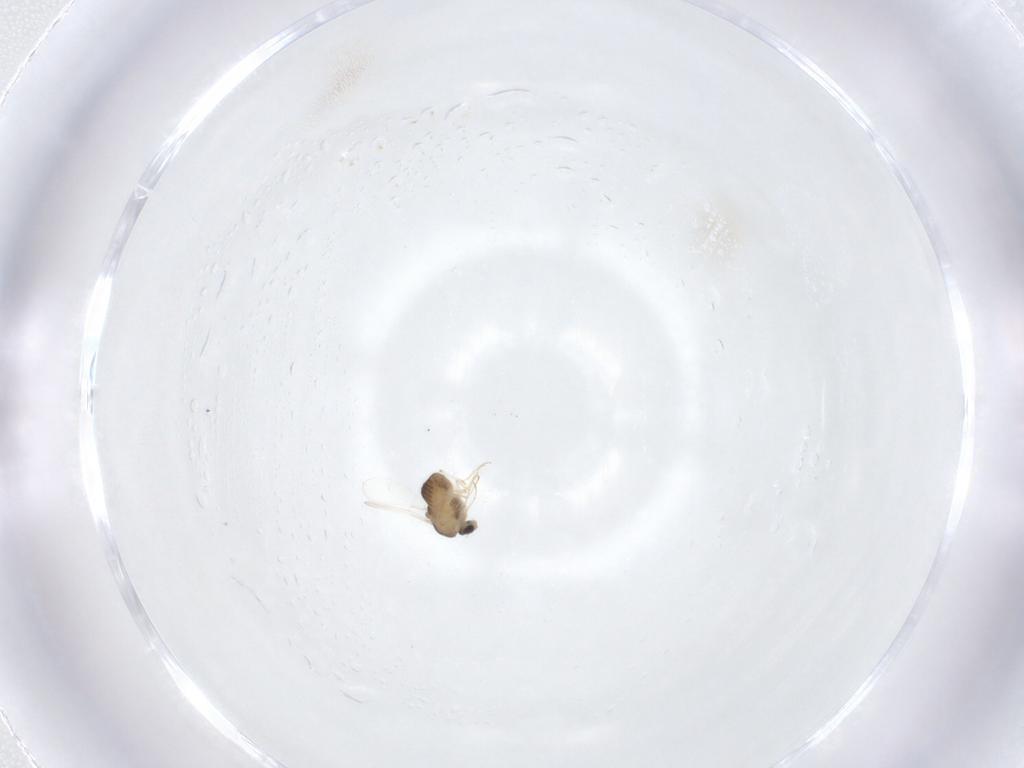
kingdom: Animalia
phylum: Arthropoda
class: Insecta
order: Diptera
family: Chironomidae
